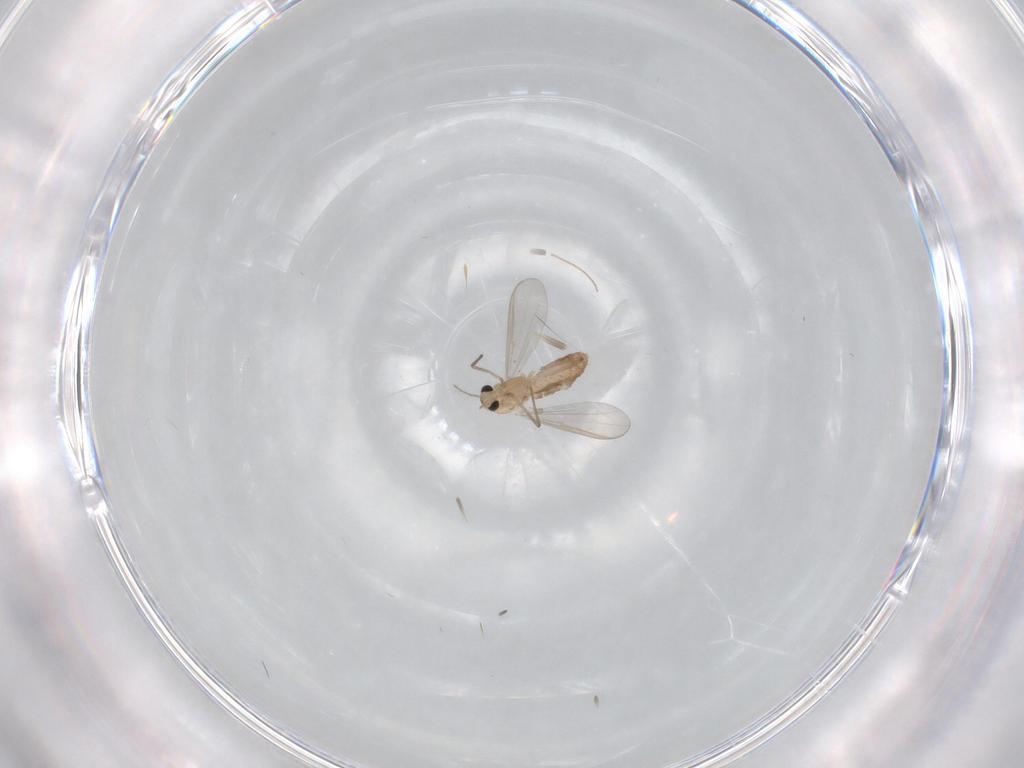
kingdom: Animalia
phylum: Arthropoda
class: Insecta
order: Diptera
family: Chironomidae
